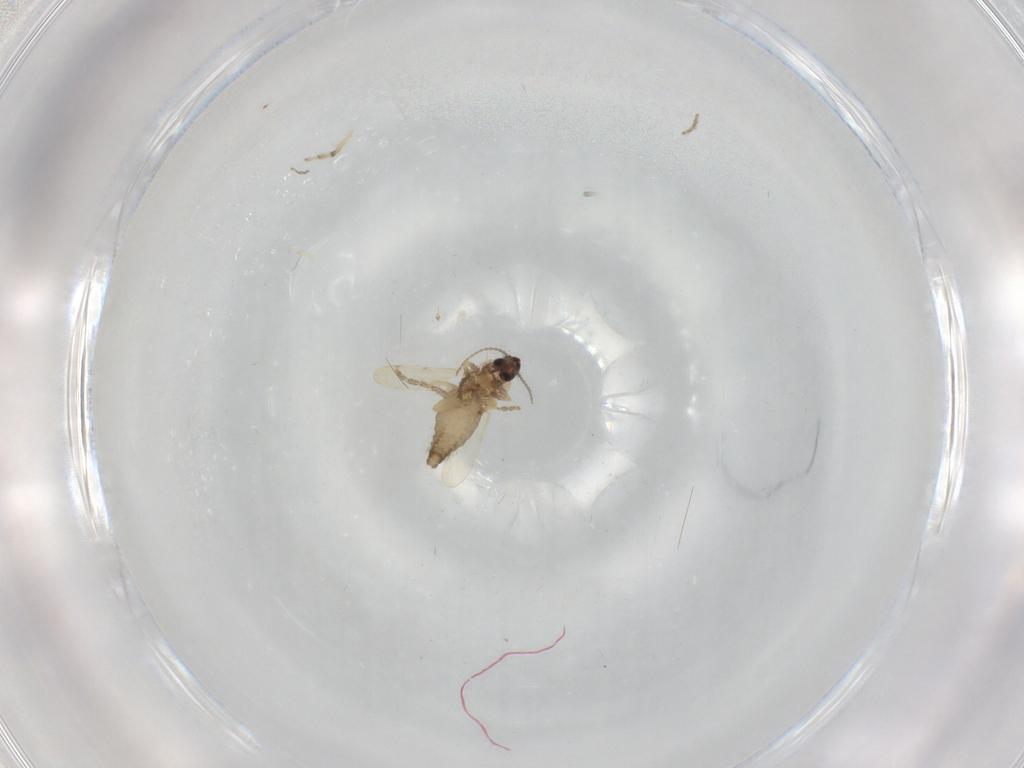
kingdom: Animalia
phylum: Arthropoda
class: Insecta
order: Diptera
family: Ceratopogonidae
